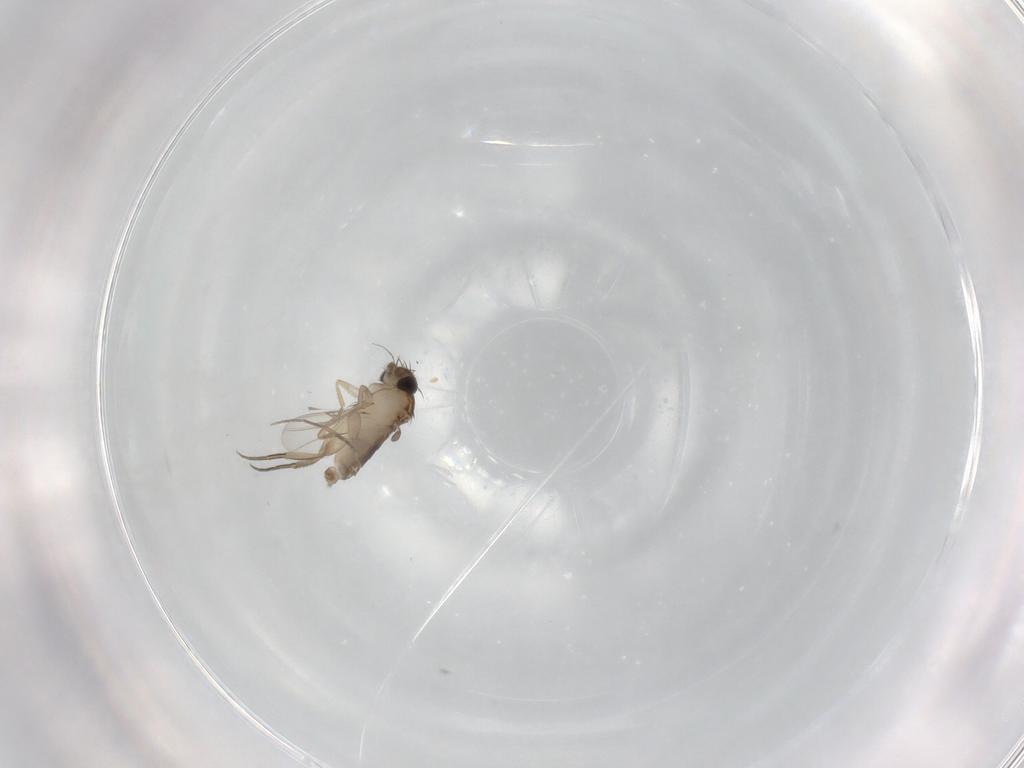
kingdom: Animalia
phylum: Arthropoda
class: Insecta
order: Diptera
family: Phoridae
